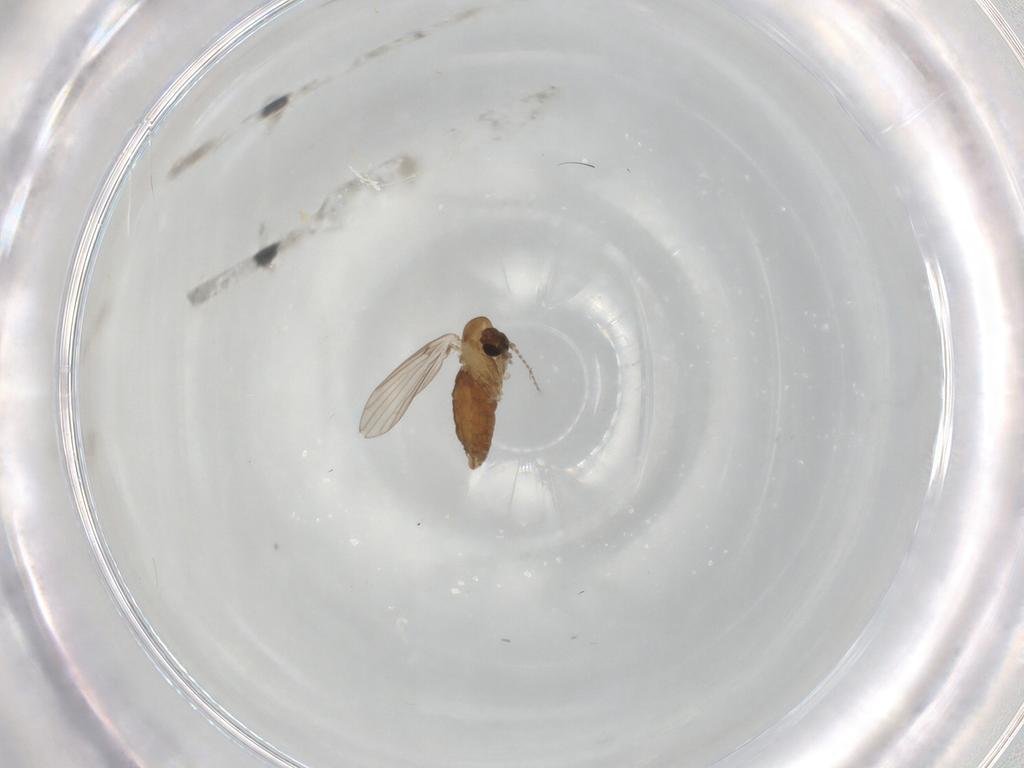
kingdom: Animalia
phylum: Arthropoda
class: Insecta
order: Diptera
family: Psychodidae
